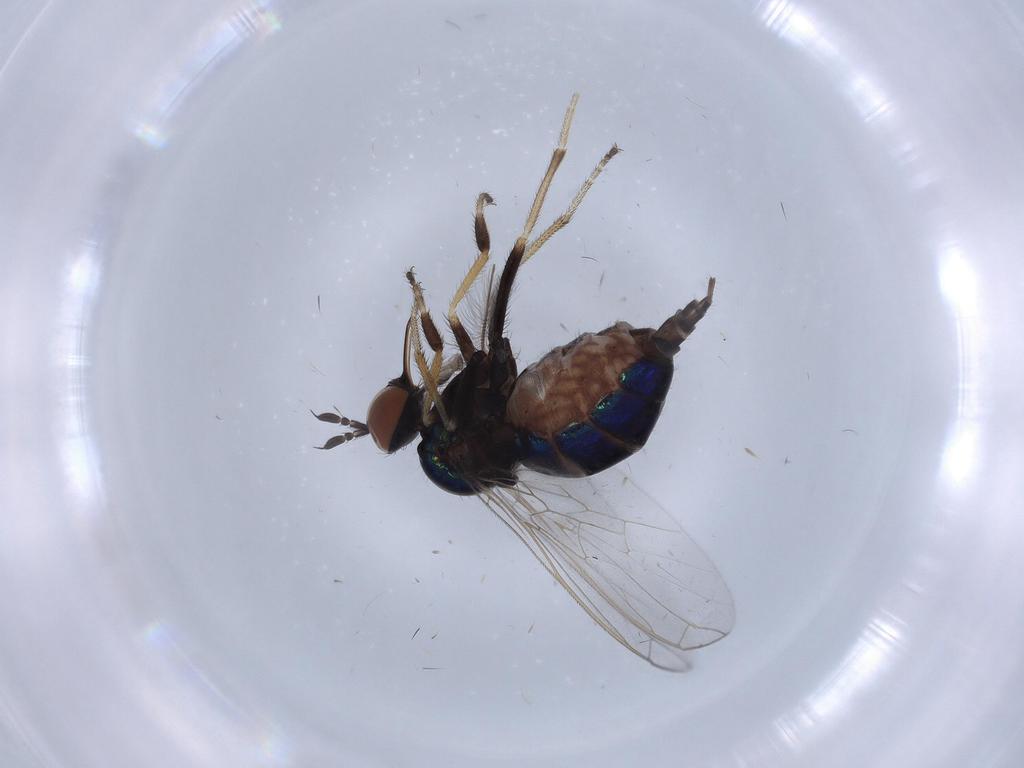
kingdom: Animalia
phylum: Arthropoda
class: Insecta
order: Diptera
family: Empididae
